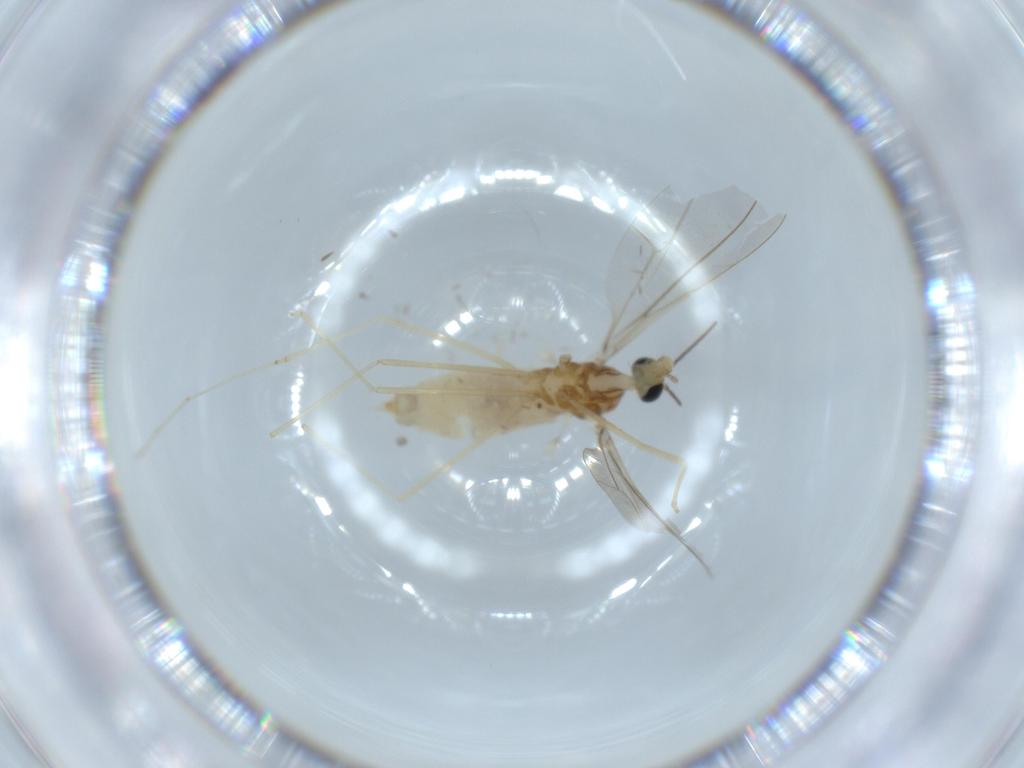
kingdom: Animalia
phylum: Arthropoda
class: Insecta
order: Diptera
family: Cecidomyiidae
